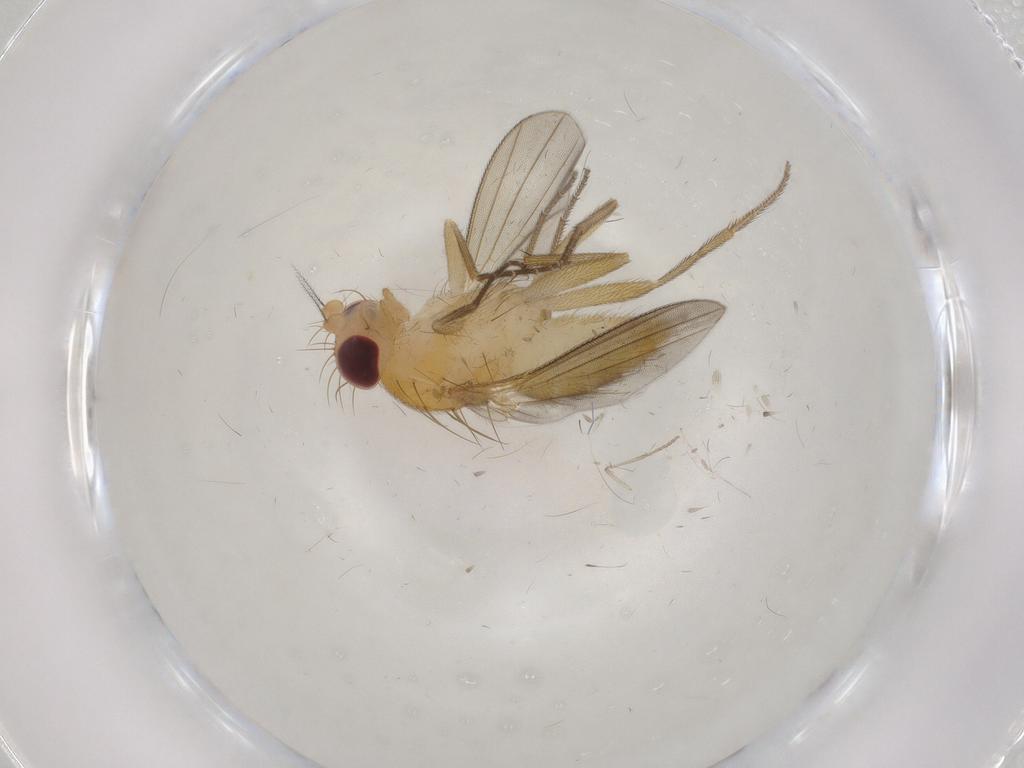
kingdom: Animalia
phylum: Arthropoda
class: Insecta
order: Diptera
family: Clusiidae
